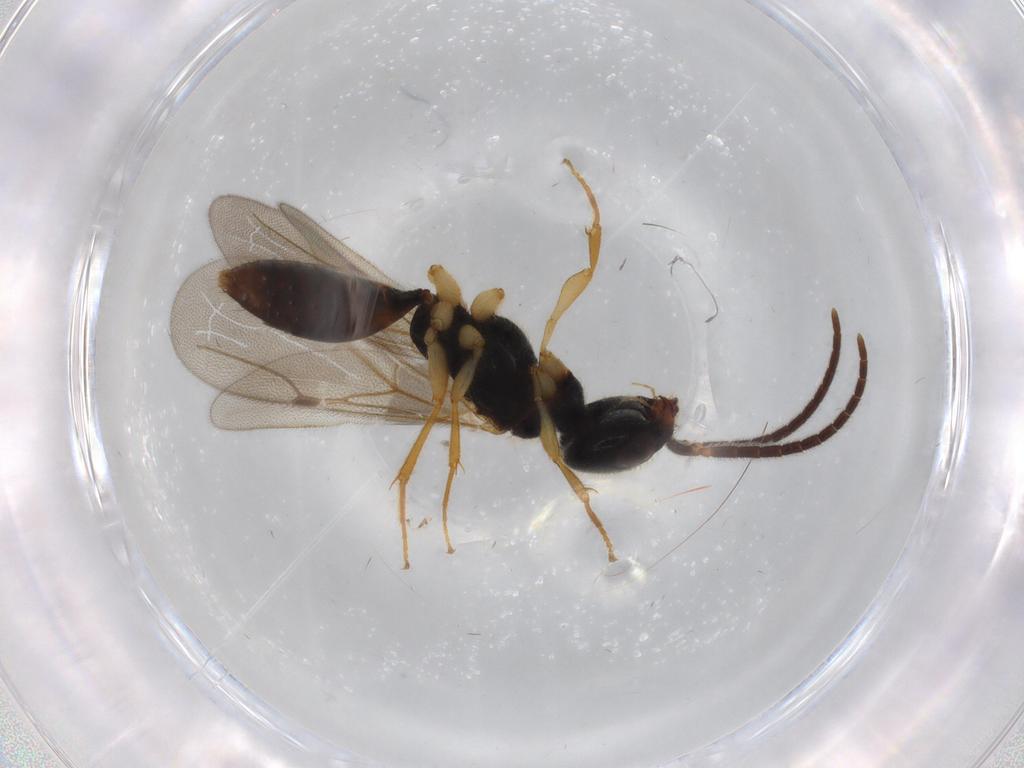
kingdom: Animalia
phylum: Arthropoda
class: Insecta
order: Hymenoptera
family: Bethylidae
